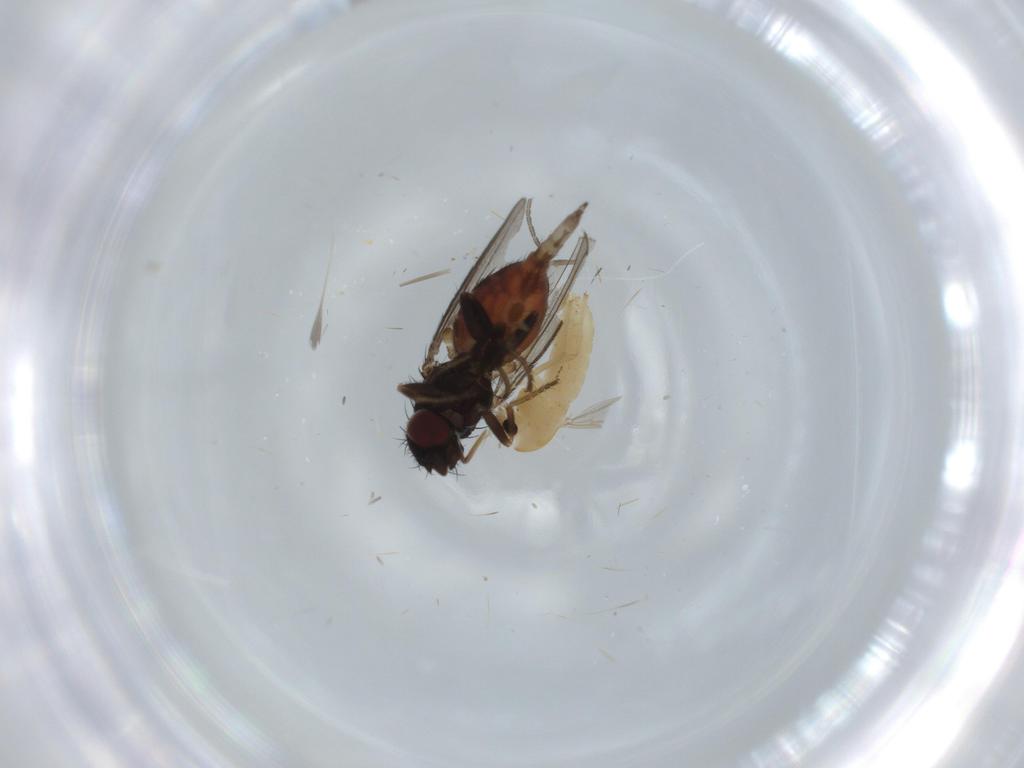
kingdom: Animalia
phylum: Arthropoda
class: Insecta
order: Diptera
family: Chironomidae
